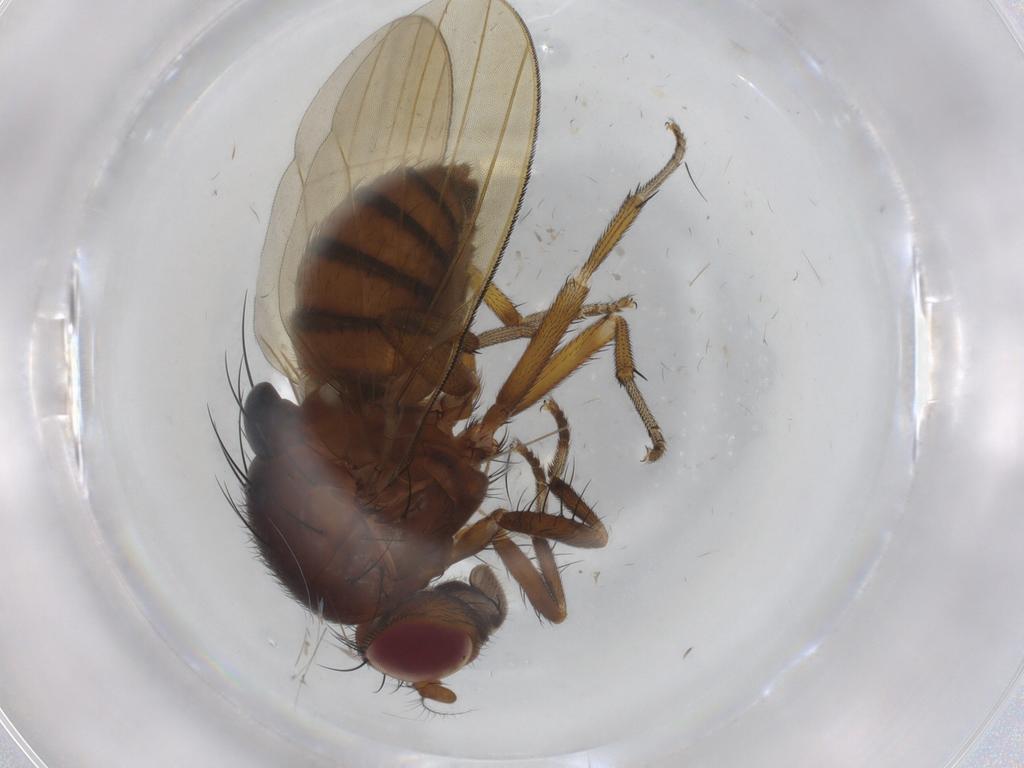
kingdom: Animalia
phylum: Arthropoda
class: Insecta
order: Diptera
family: Chironomidae
